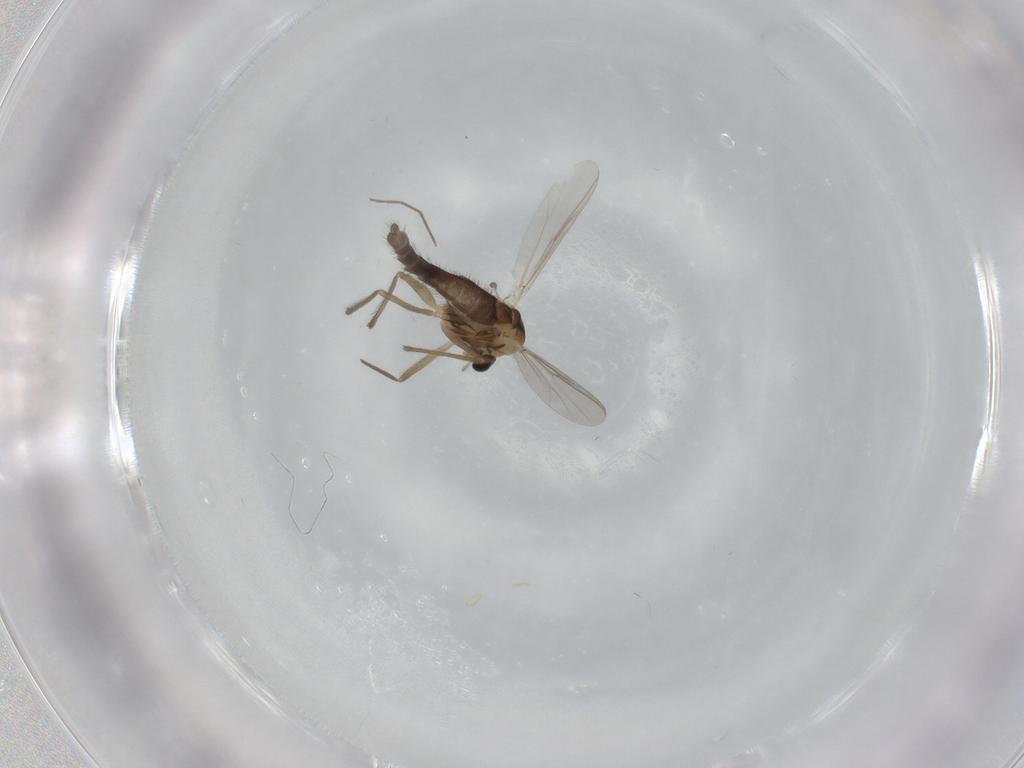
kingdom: Animalia
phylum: Arthropoda
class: Insecta
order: Diptera
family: Chironomidae
